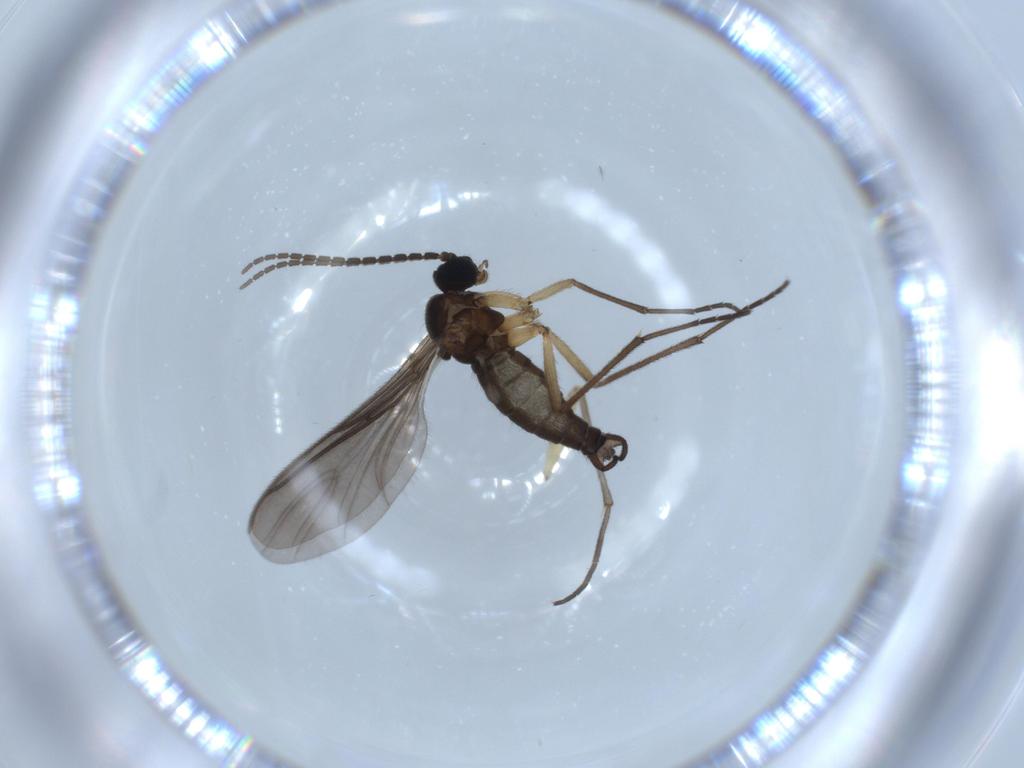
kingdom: Animalia
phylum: Arthropoda
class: Insecta
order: Diptera
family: Sciaridae
